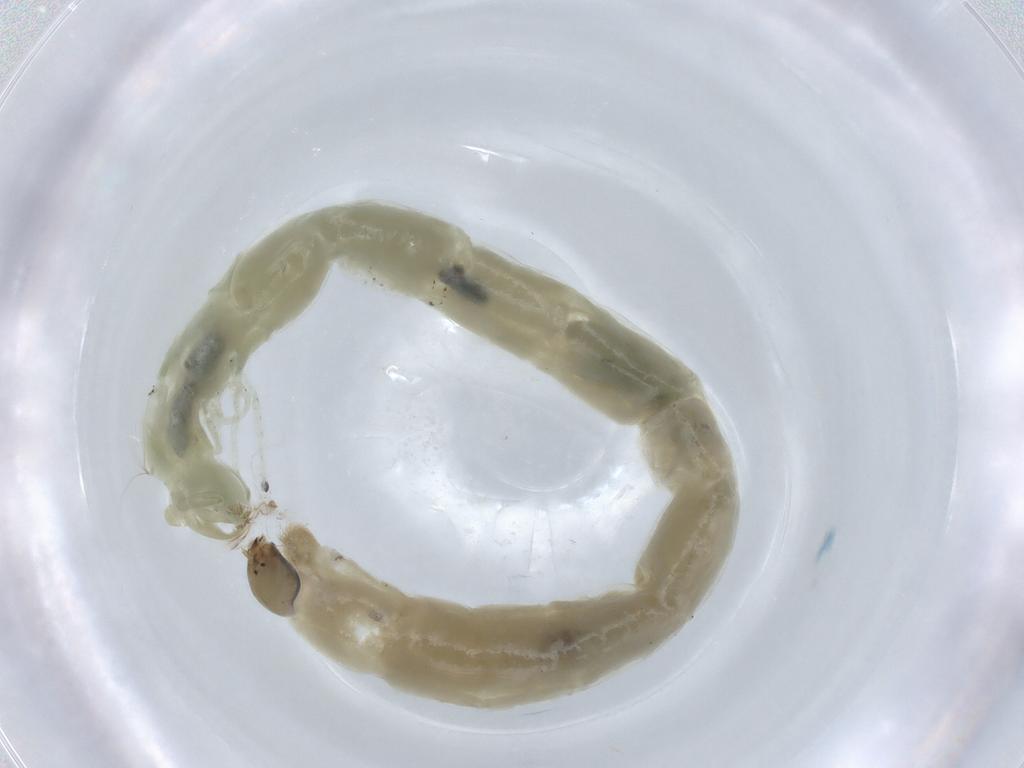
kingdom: Animalia
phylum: Arthropoda
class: Insecta
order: Diptera
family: Chironomidae
